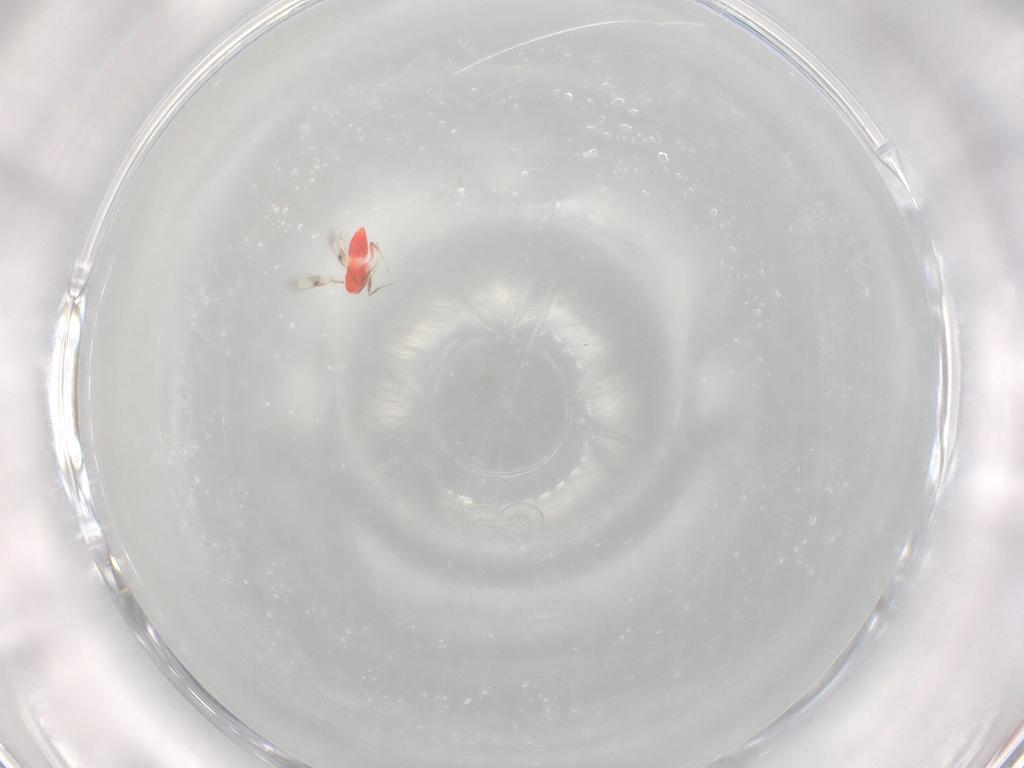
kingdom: Animalia
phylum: Arthropoda
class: Insecta
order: Hymenoptera
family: Trichogrammatidae
